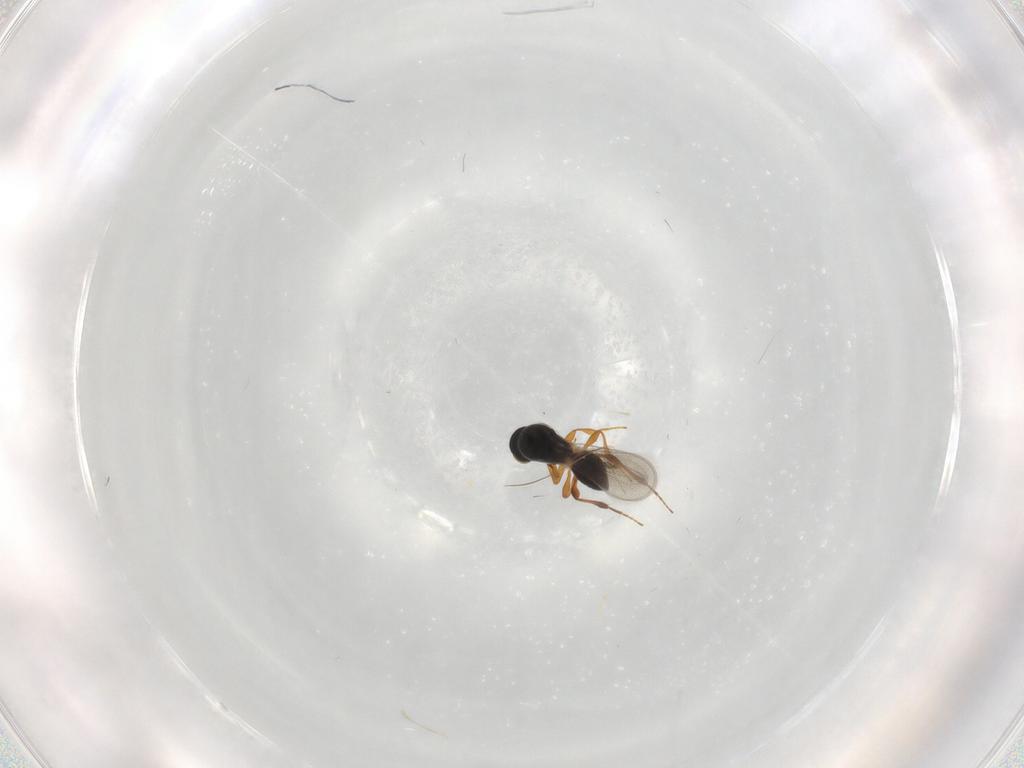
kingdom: Animalia
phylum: Arthropoda
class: Insecta
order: Hymenoptera
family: Platygastridae
